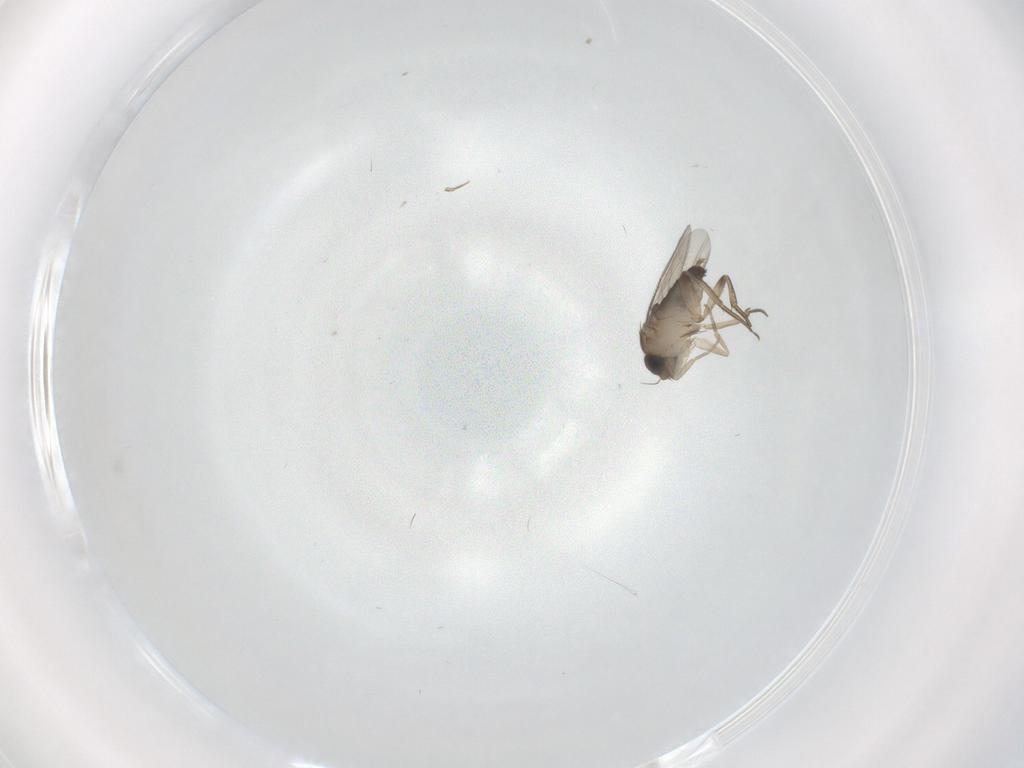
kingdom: Animalia
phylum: Arthropoda
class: Insecta
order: Diptera
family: Phoridae
